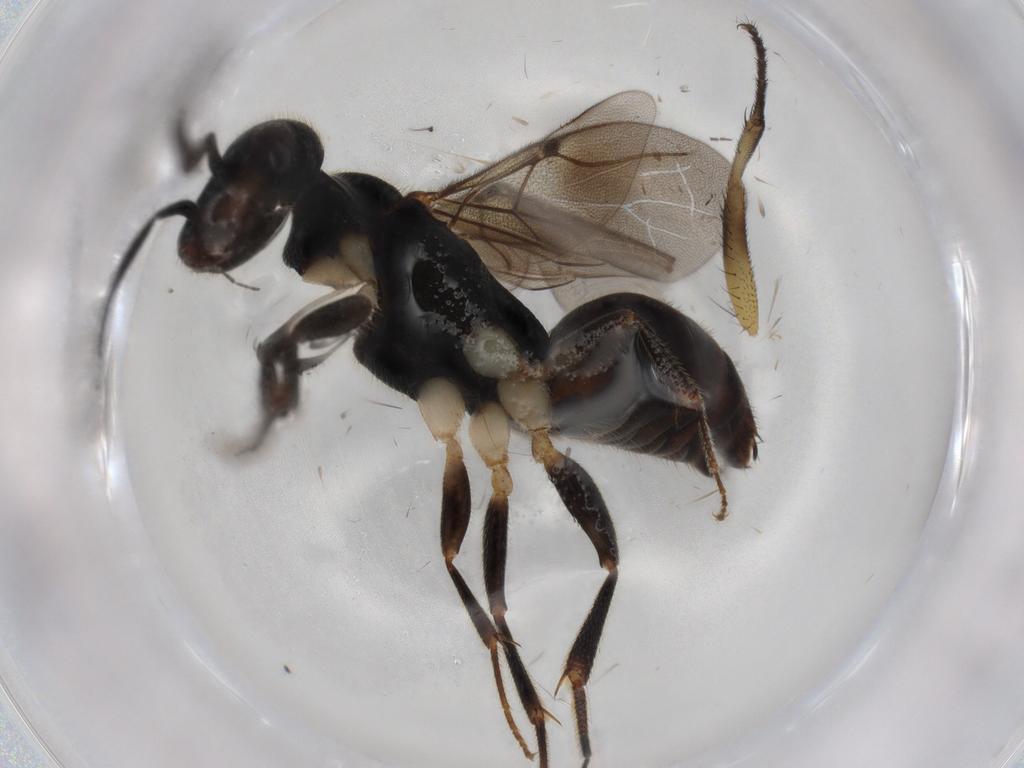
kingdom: Animalia
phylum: Arthropoda
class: Insecta
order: Hymenoptera
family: Bethylidae
